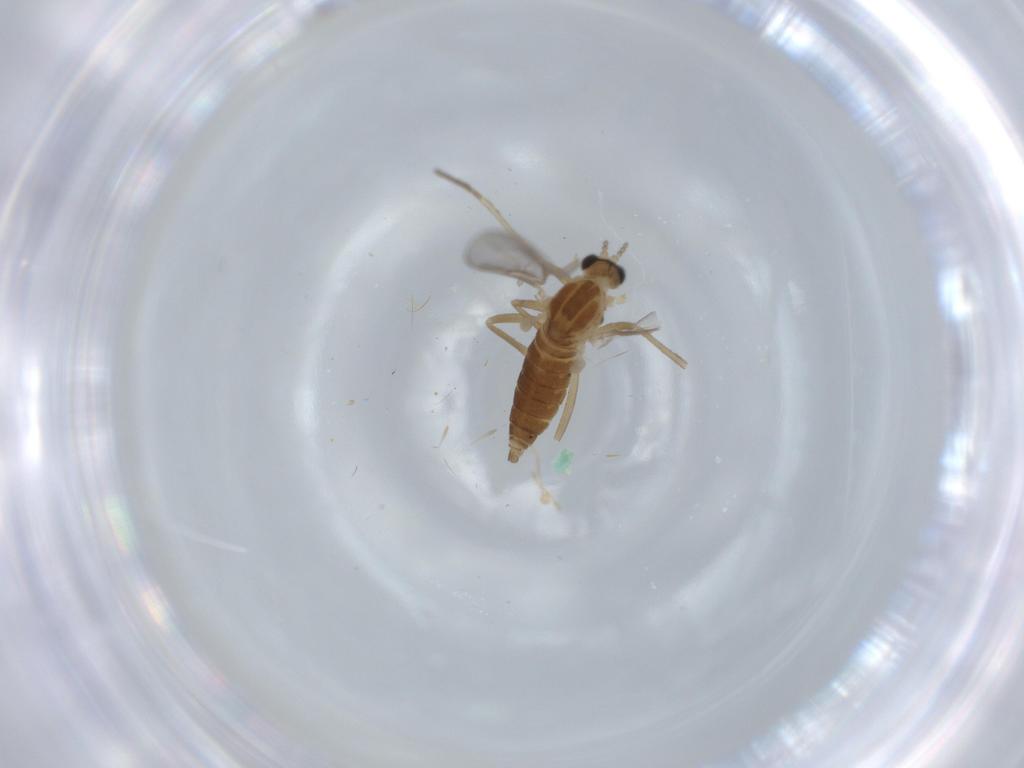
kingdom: Animalia
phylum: Arthropoda
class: Insecta
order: Diptera
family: Cecidomyiidae
